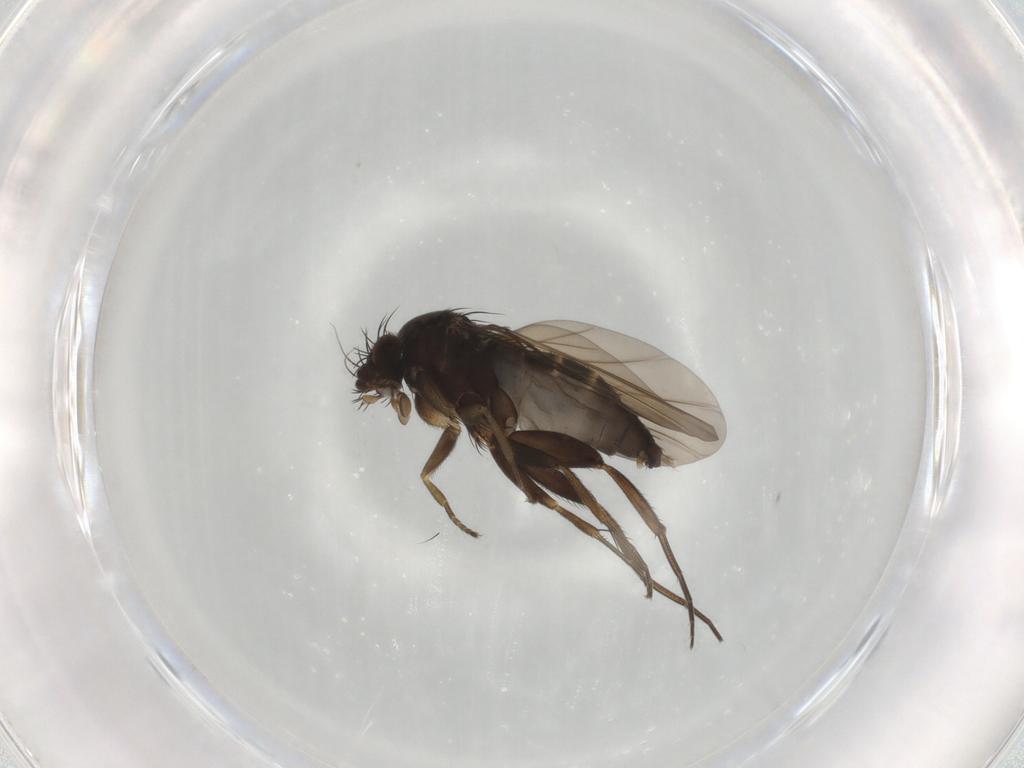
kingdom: Animalia
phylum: Arthropoda
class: Insecta
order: Diptera
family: Phoridae
